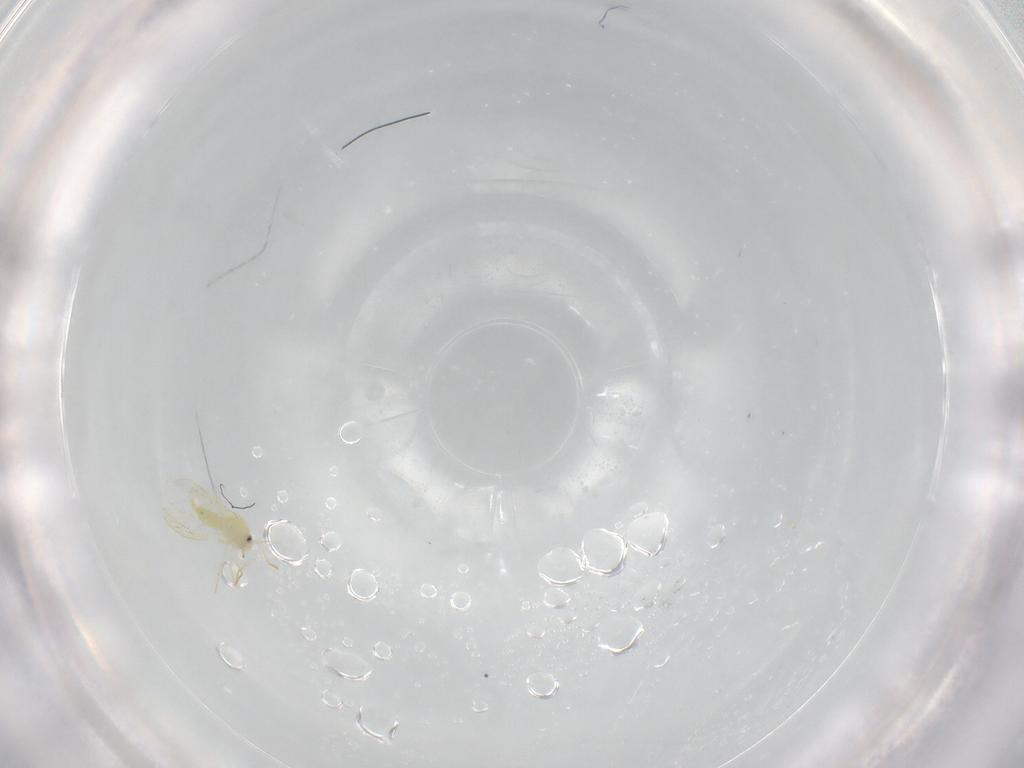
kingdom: Animalia
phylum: Arthropoda
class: Insecta
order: Hemiptera
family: Aleyrodidae
